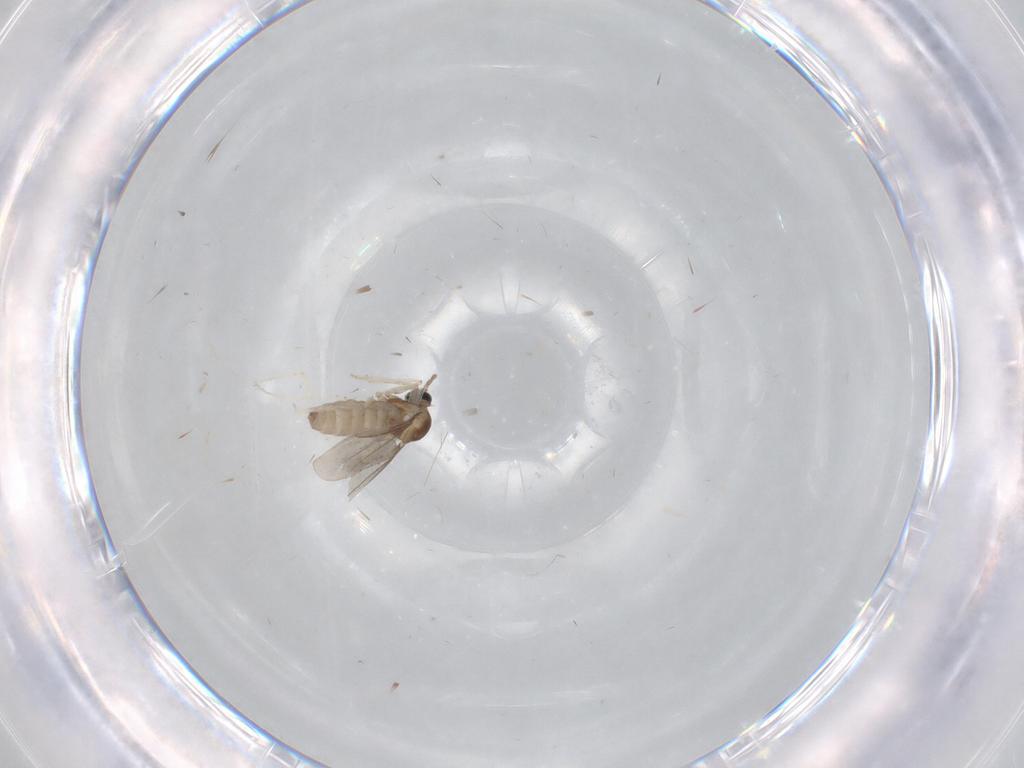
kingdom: Animalia
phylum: Arthropoda
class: Insecta
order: Diptera
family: Cecidomyiidae
